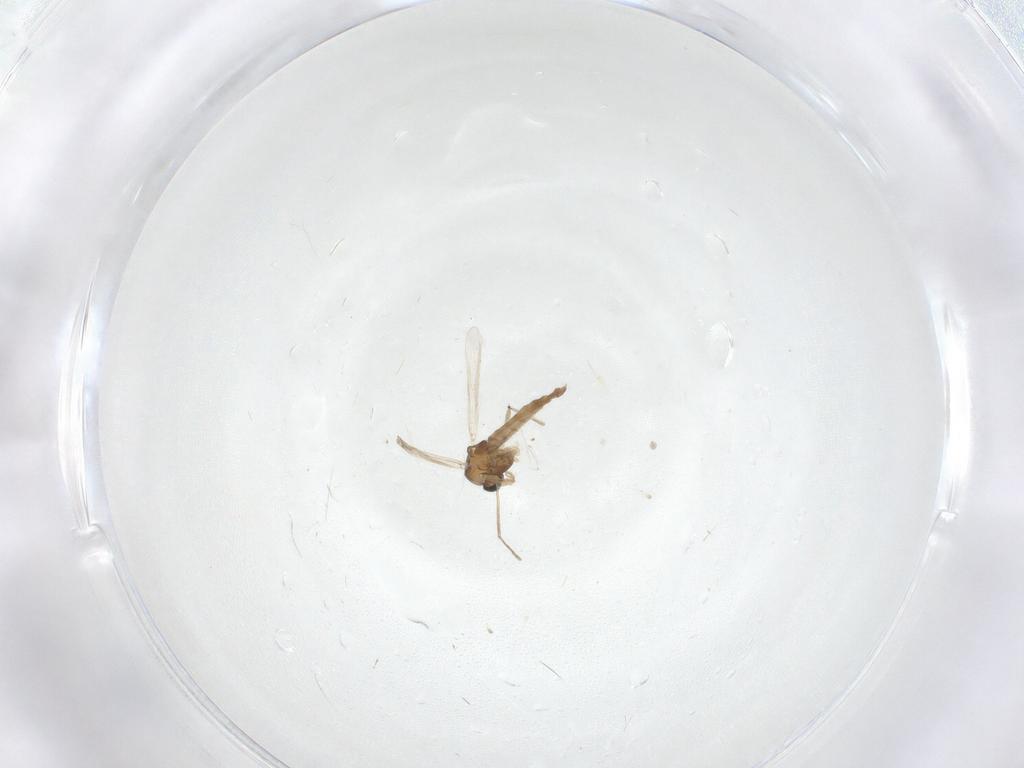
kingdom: Animalia
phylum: Arthropoda
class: Insecta
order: Diptera
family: Chironomidae
